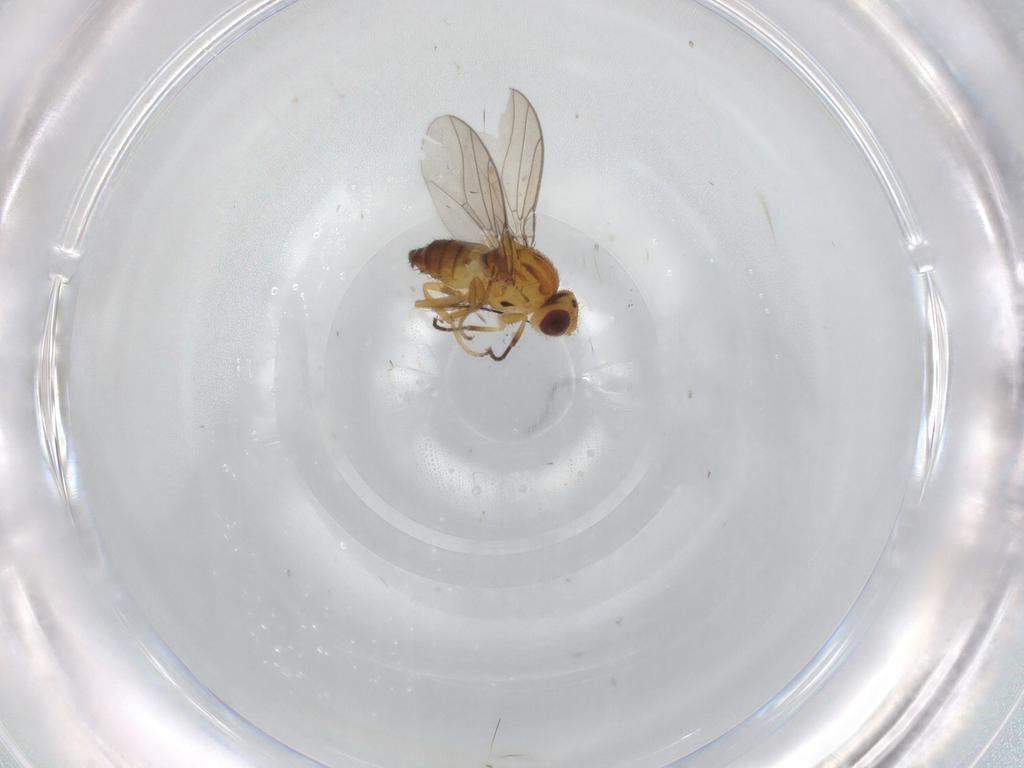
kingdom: Animalia
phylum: Arthropoda
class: Insecta
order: Diptera
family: Chloropidae
